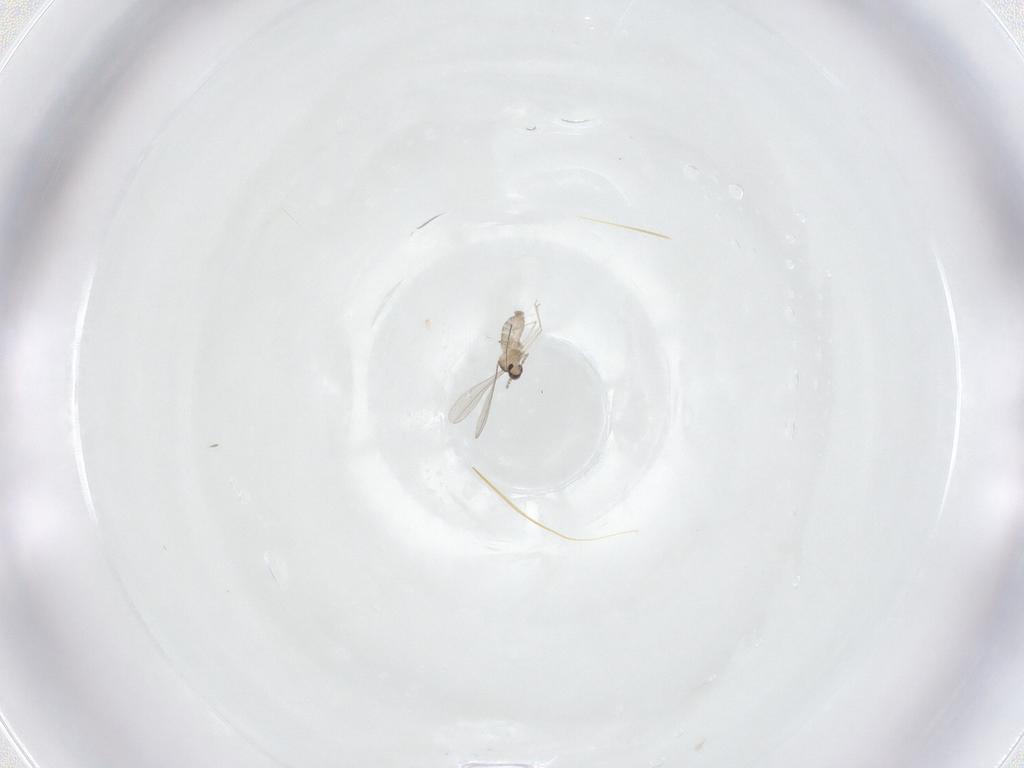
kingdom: Animalia
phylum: Arthropoda
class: Insecta
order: Diptera
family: Cecidomyiidae
